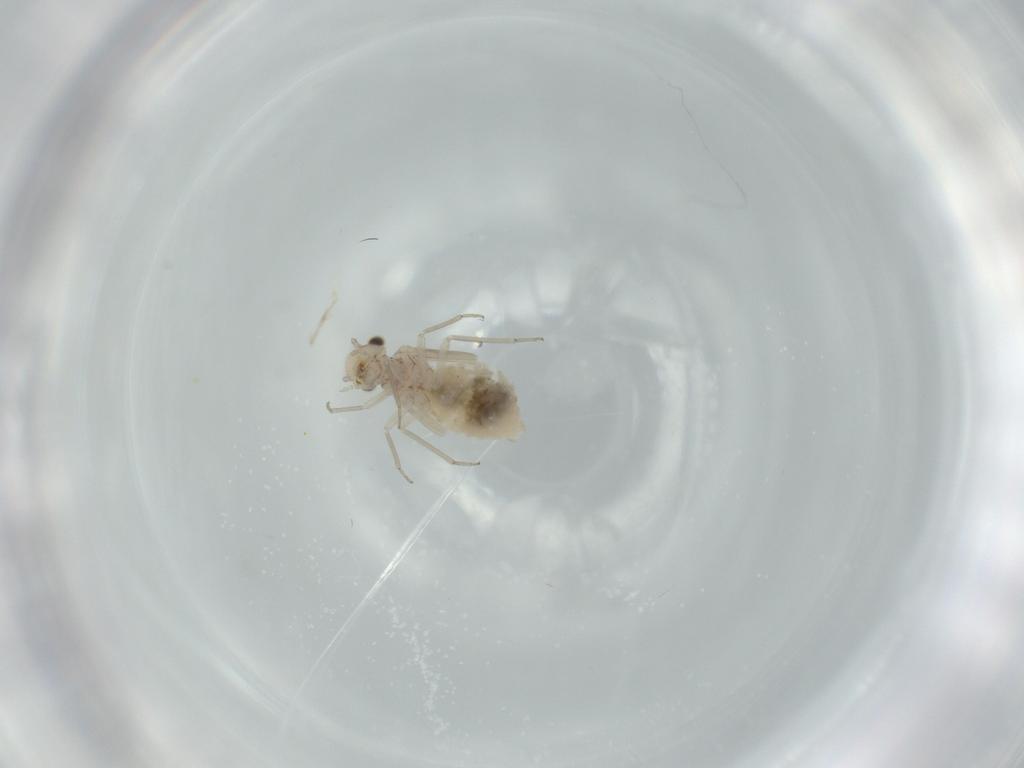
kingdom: Animalia
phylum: Arthropoda
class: Insecta
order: Psocodea
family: Lachesillidae
